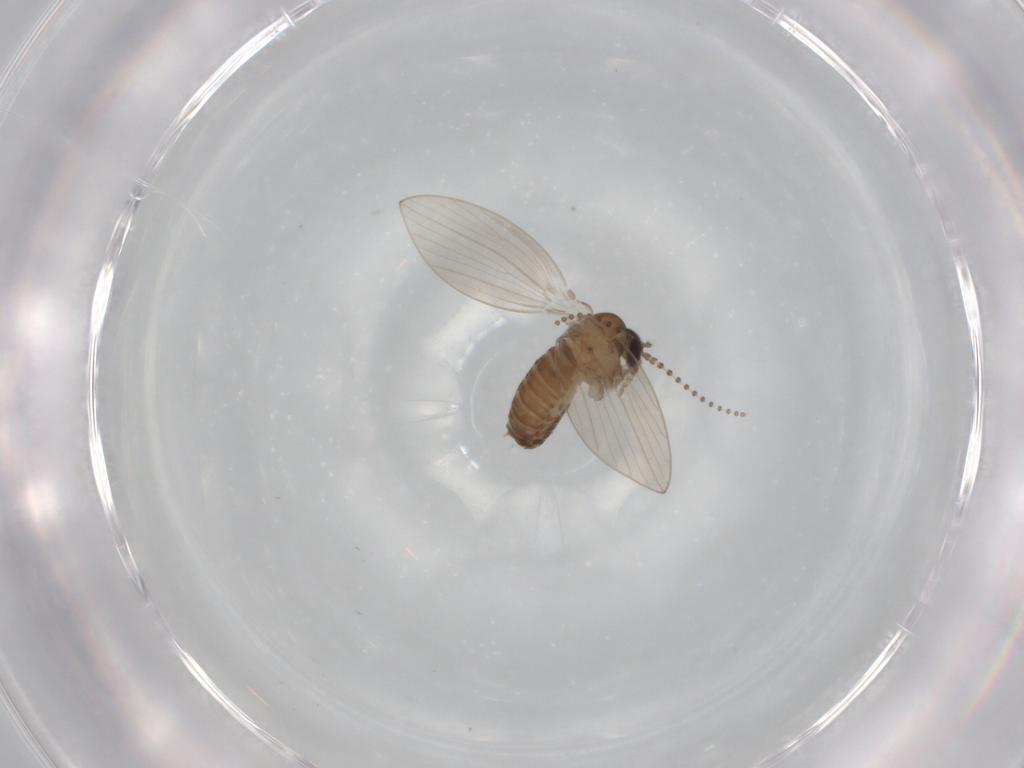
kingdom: Animalia
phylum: Arthropoda
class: Insecta
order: Diptera
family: Psychodidae
